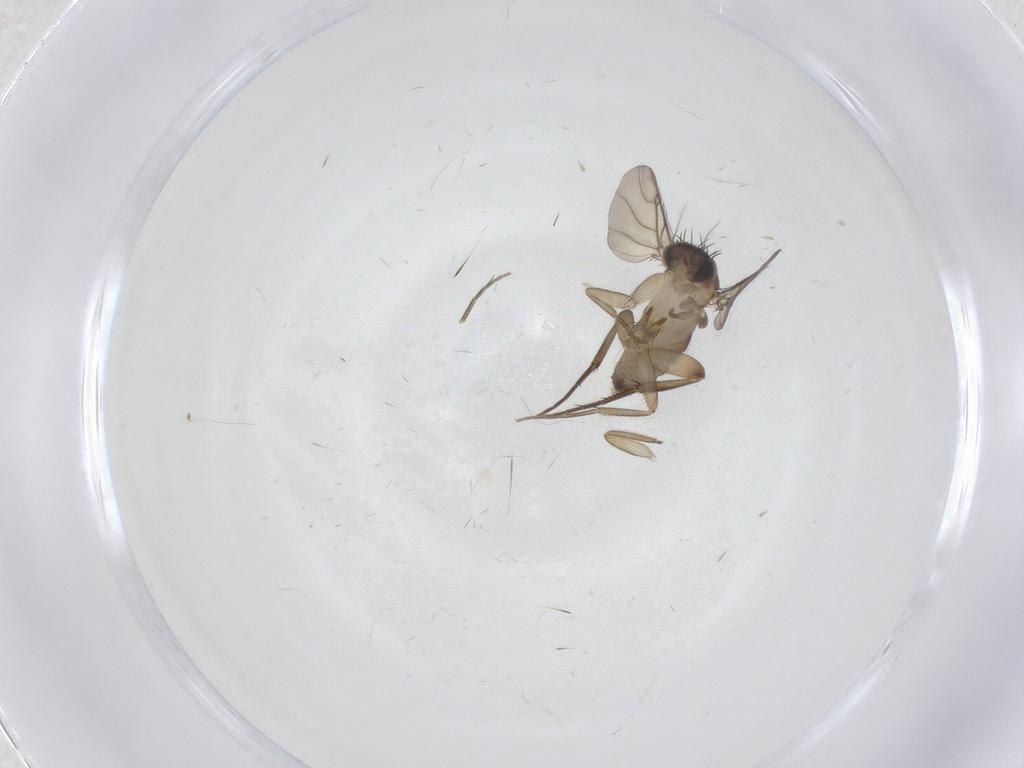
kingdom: Animalia
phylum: Arthropoda
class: Insecta
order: Diptera
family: Phoridae
